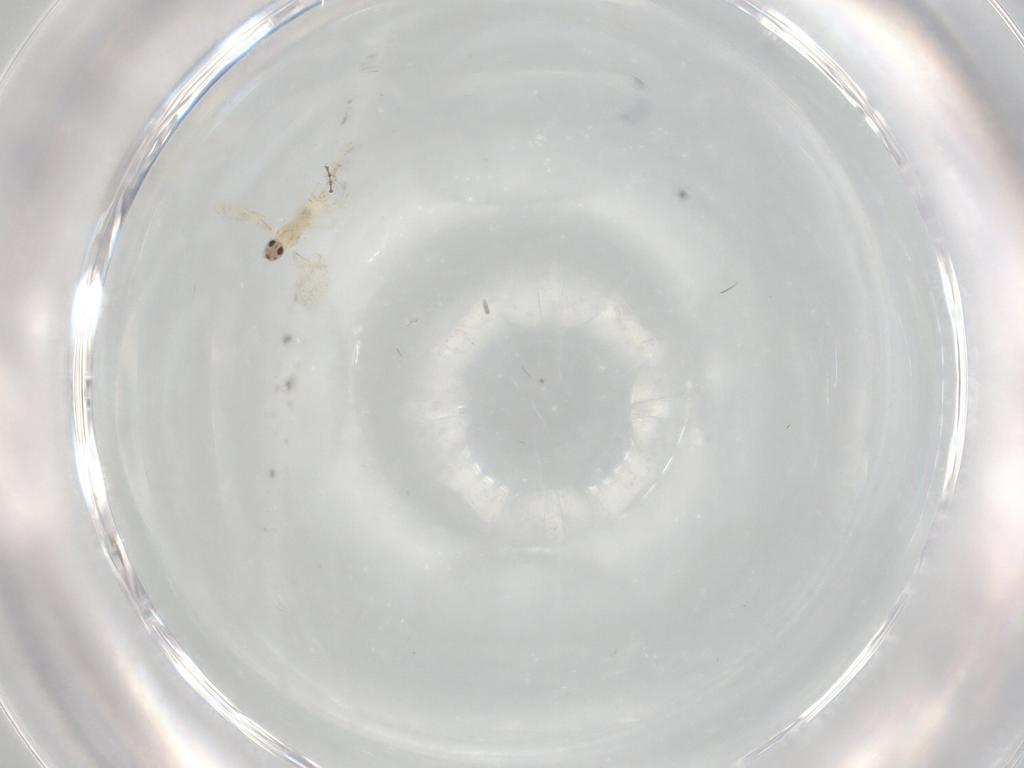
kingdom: Animalia
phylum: Arthropoda
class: Insecta
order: Diptera
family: Cecidomyiidae
